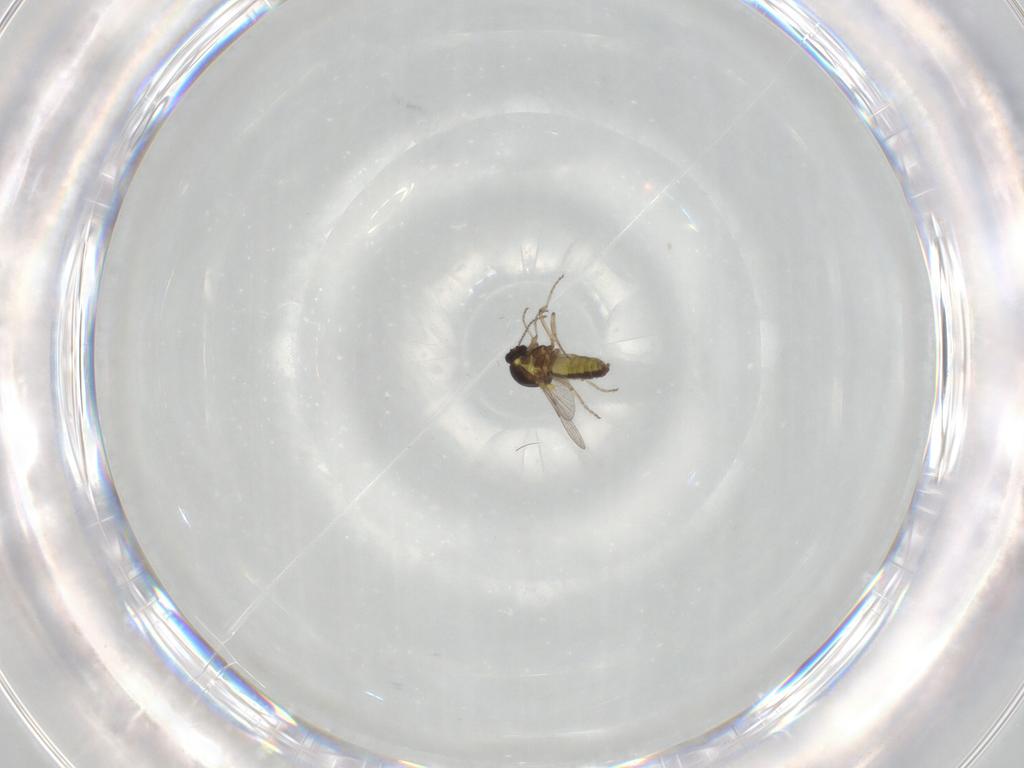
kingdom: Animalia
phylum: Arthropoda
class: Insecta
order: Diptera
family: Ceratopogonidae
